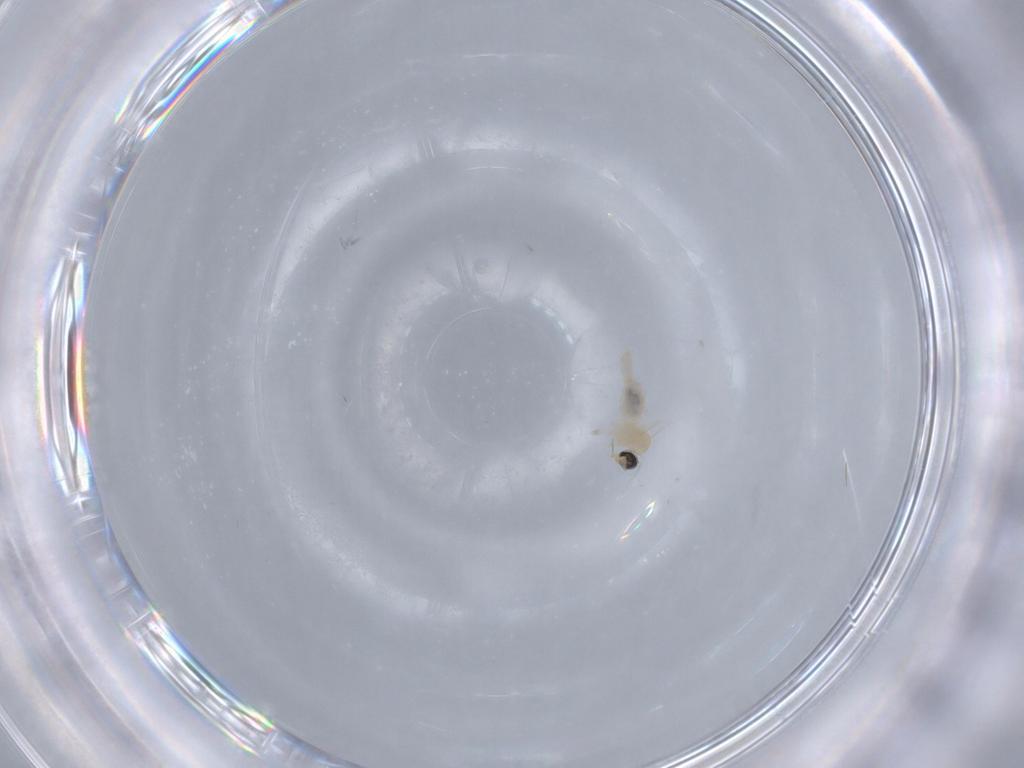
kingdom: Animalia
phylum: Arthropoda
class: Insecta
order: Diptera
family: Cecidomyiidae
